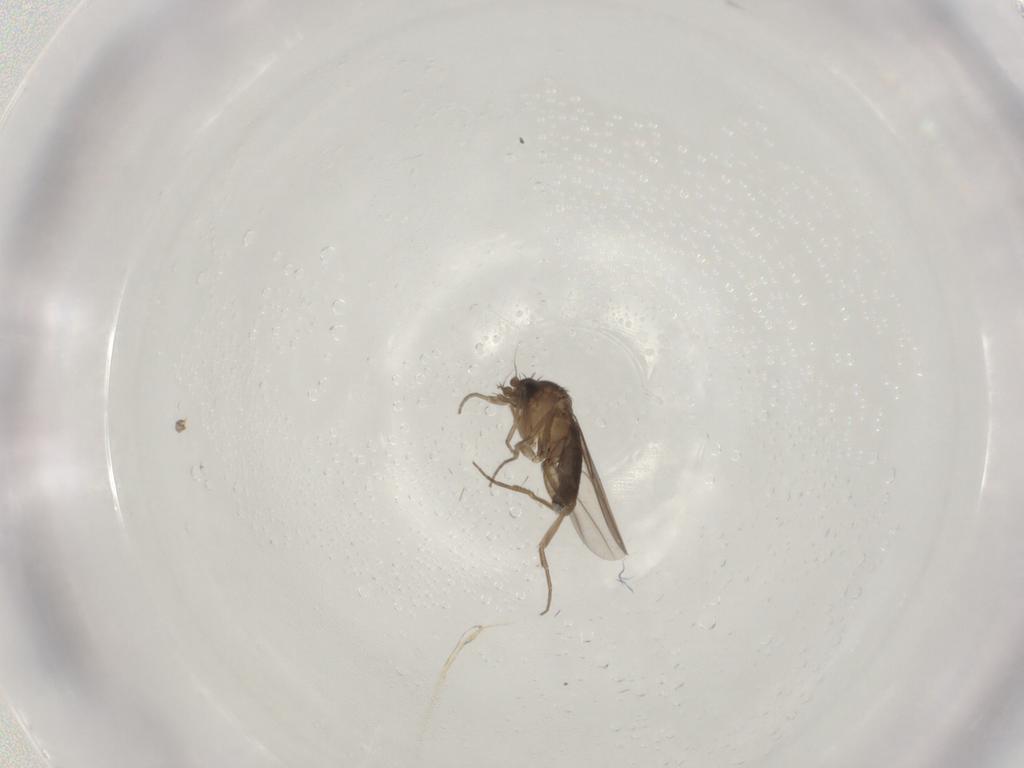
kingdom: Animalia
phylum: Arthropoda
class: Insecta
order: Diptera
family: Phoridae
